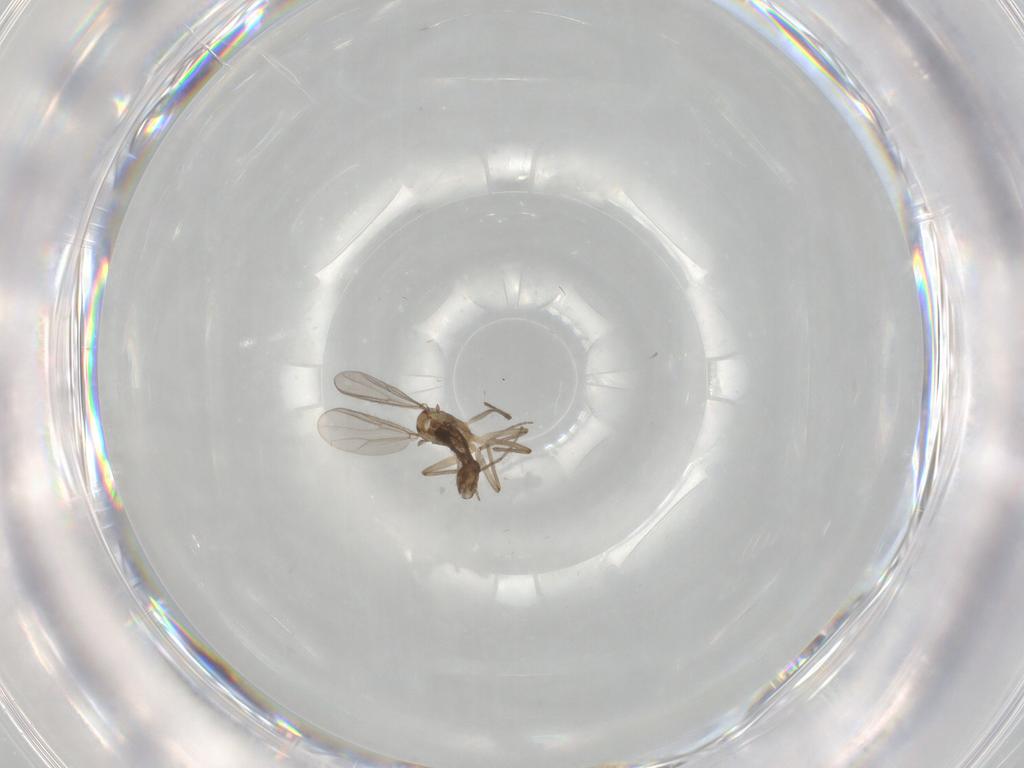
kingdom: Animalia
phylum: Arthropoda
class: Insecta
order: Diptera
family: Chironomidae
